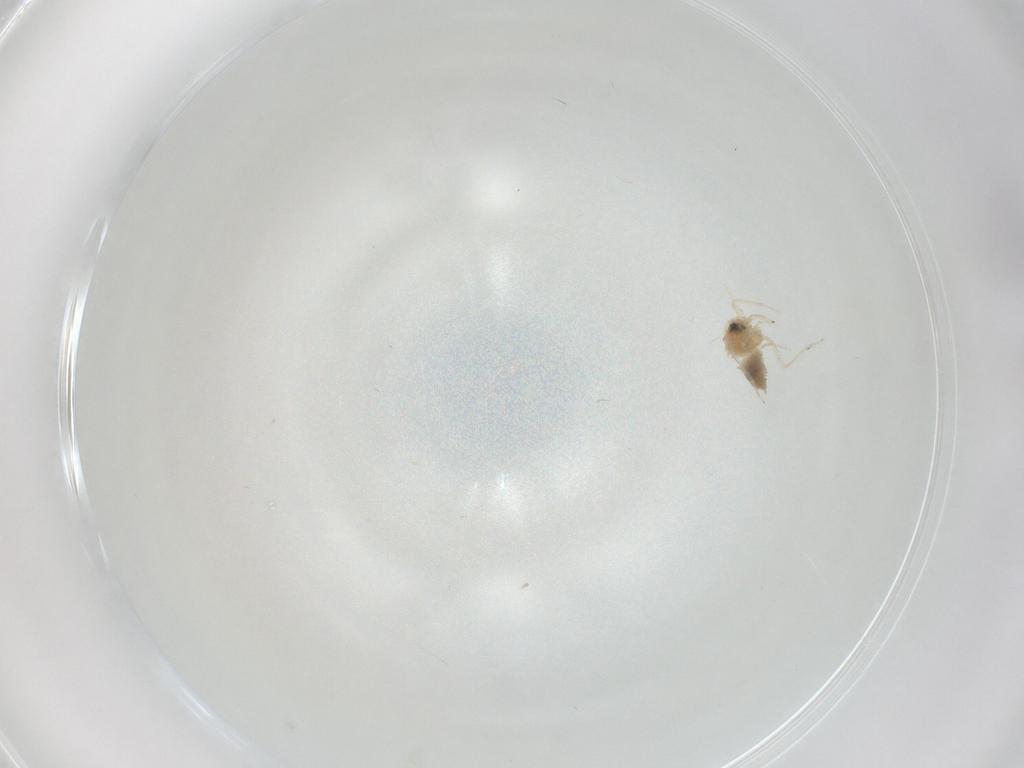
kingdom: Animalia
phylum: Arthropoda
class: Insecta
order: Hemiptera
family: Aleyrodidae
